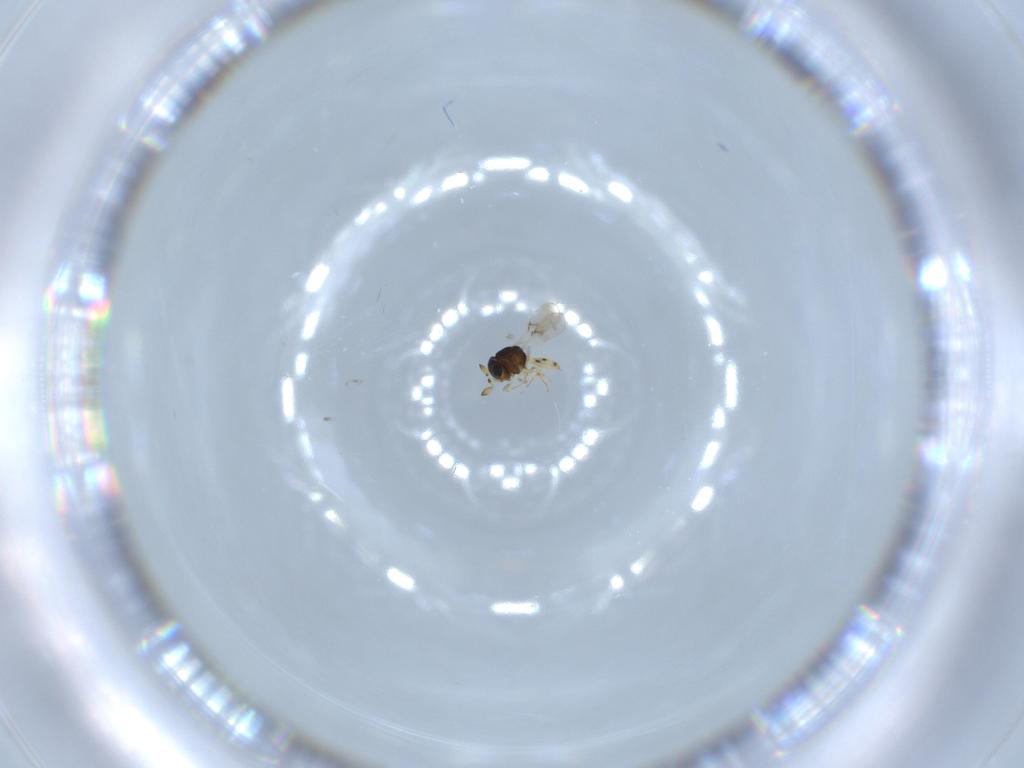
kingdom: Animalia
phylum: Arthropoda
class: Insecta
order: Hymenoptera
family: Scelionidae
